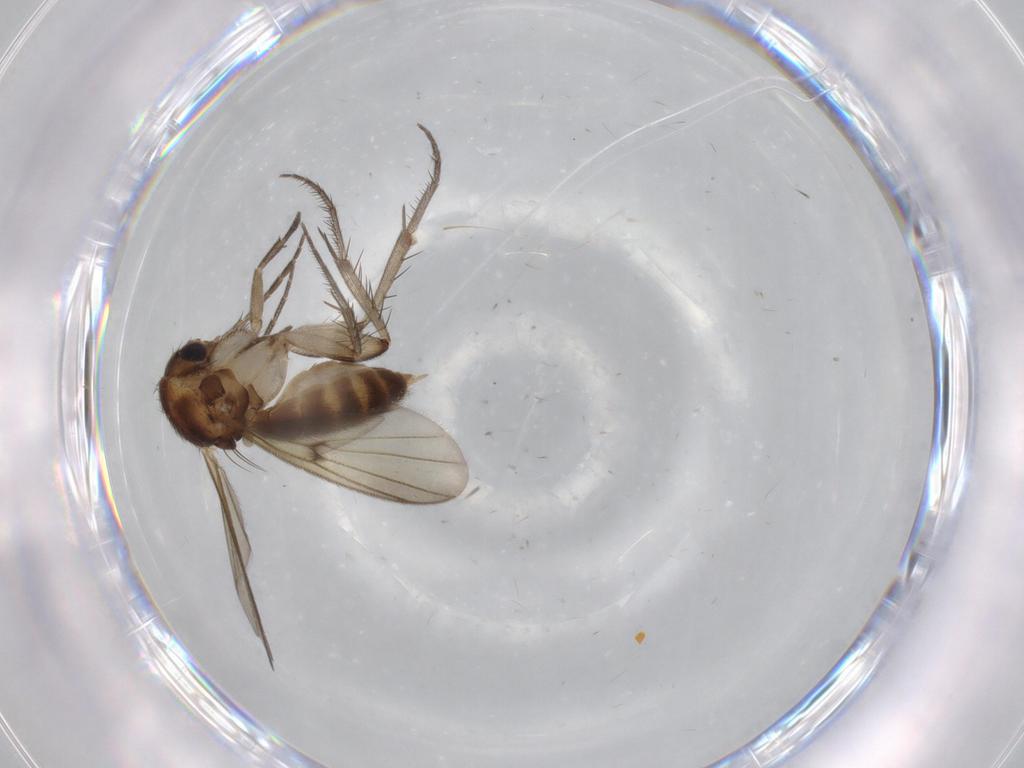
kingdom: Animalia
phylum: Arthropoda
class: Insecta
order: Diptera
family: Mycetophilidae
